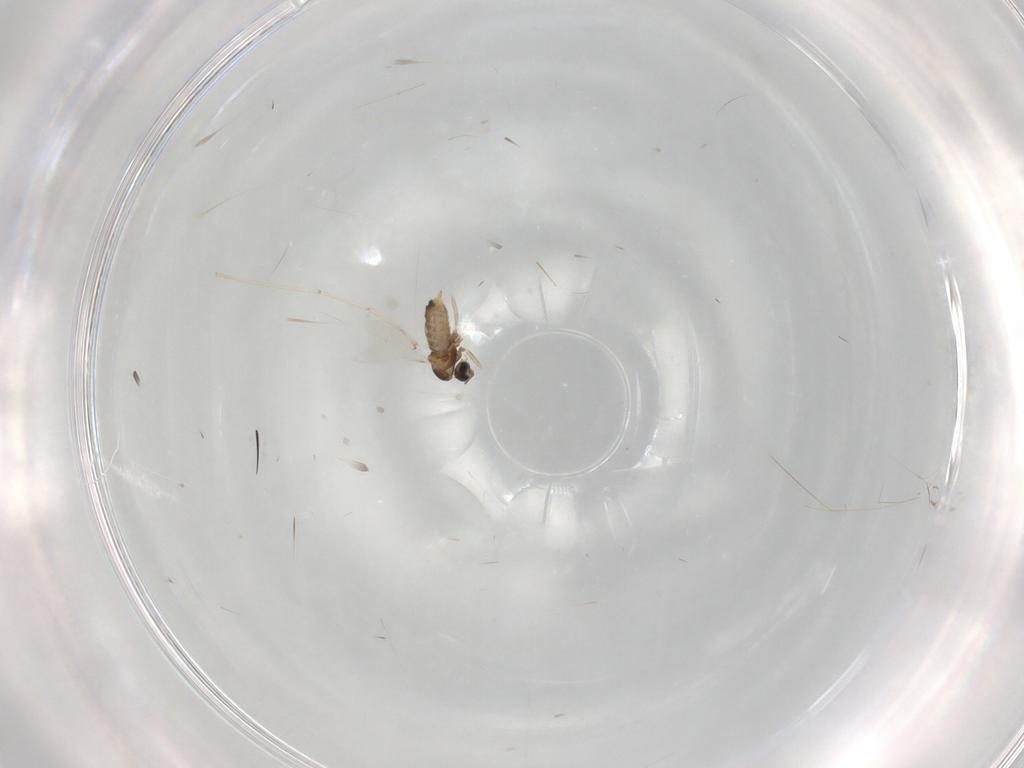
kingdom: Animalia
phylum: Arthropoda
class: Insecta
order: Diptera
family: Cecidomyiidae
